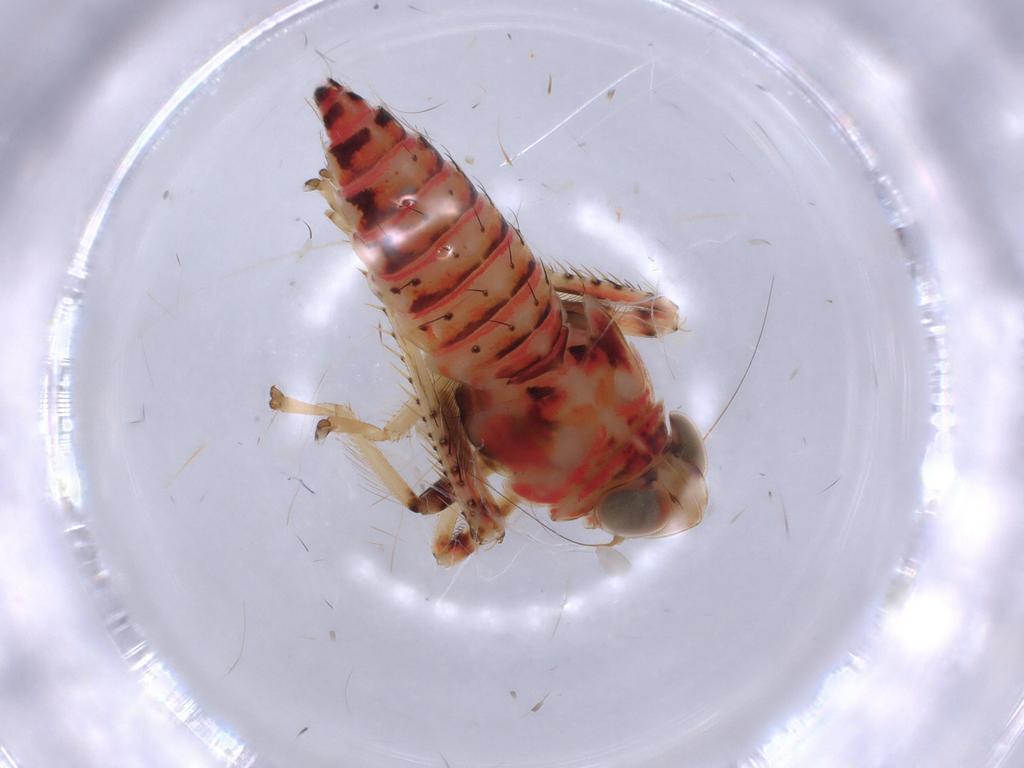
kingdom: Animalia
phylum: Arthropoda
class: Insecta
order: Hemiptera
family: Cicadellidae
